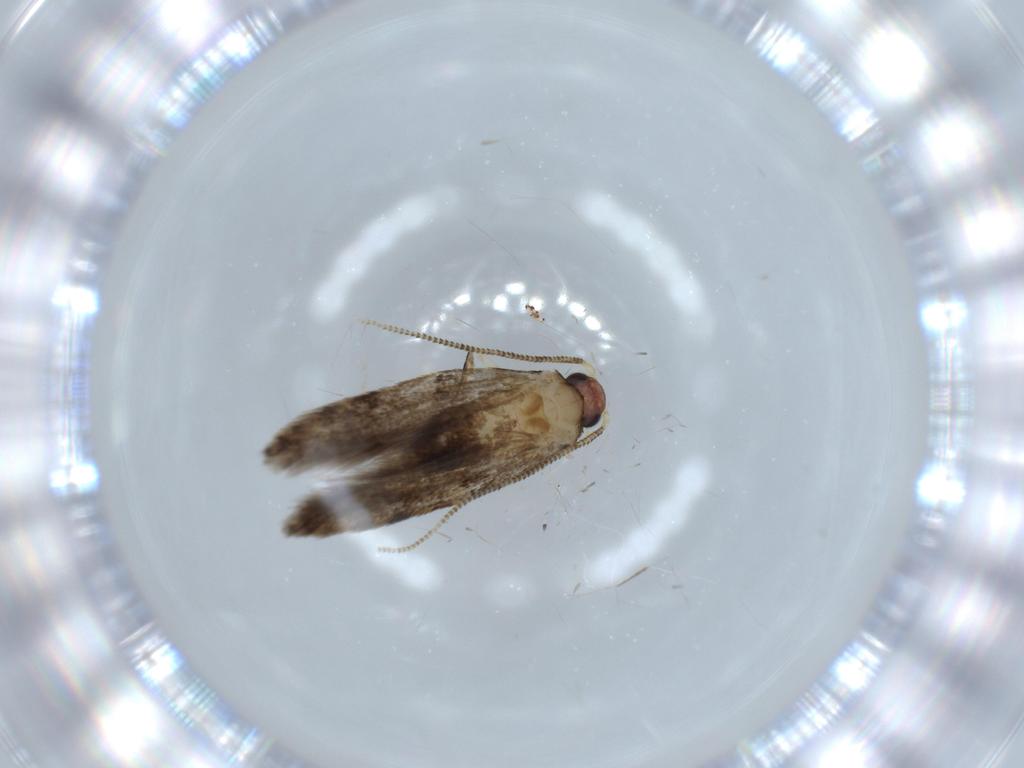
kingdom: Animalia
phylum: Arthropoda
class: Insecta
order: Lepidoptera
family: Tineidae
